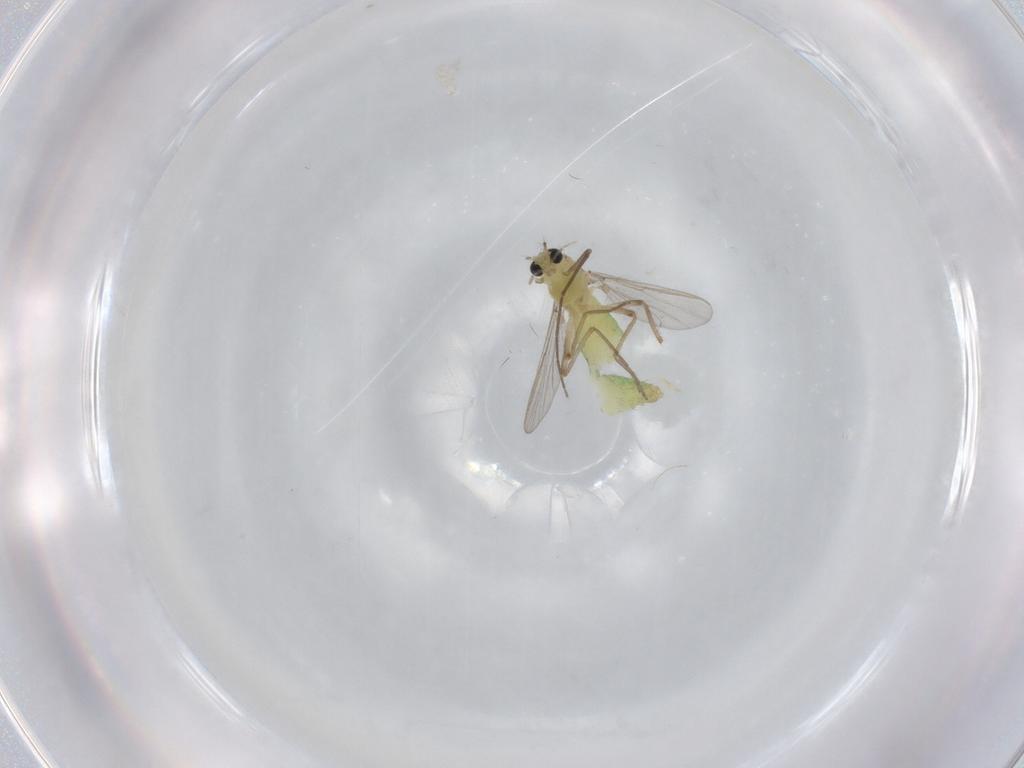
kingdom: Animalia
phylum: Arthropoda
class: Insecta
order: Diptera
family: Chironomidae
